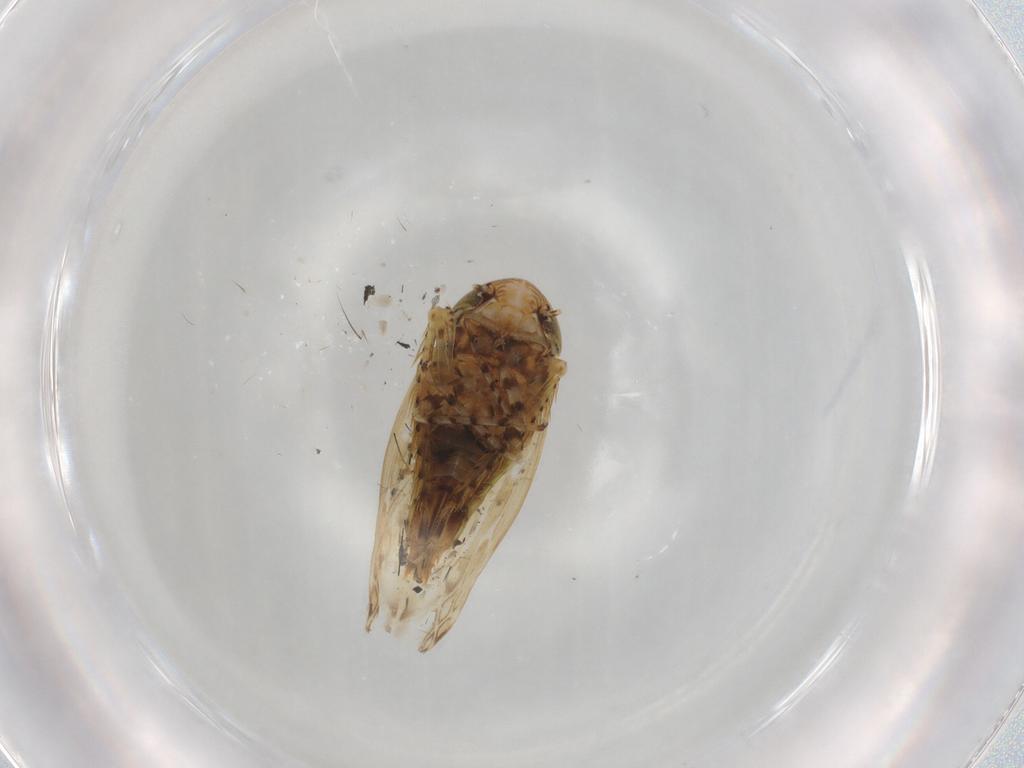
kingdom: Animalia
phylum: Arthropoda
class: Insecta
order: Hemiptera
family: Cicadellidae
